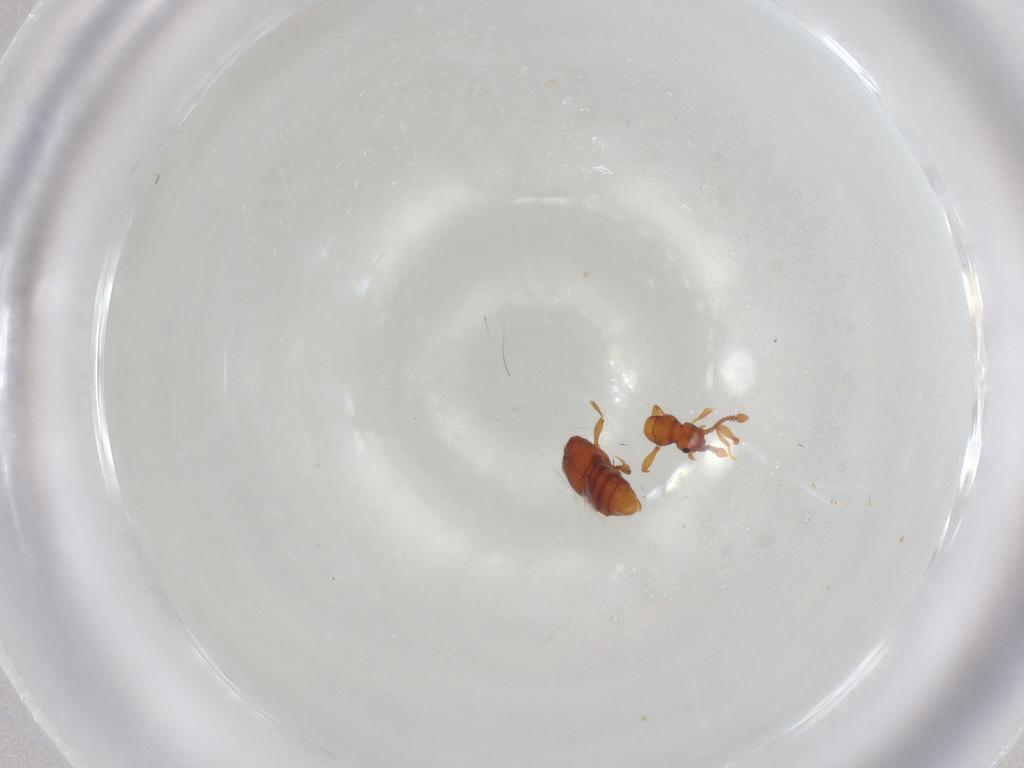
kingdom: Animalia
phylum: Arthropoda
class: Insecta
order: Coleoptera
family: Staphylinidae
